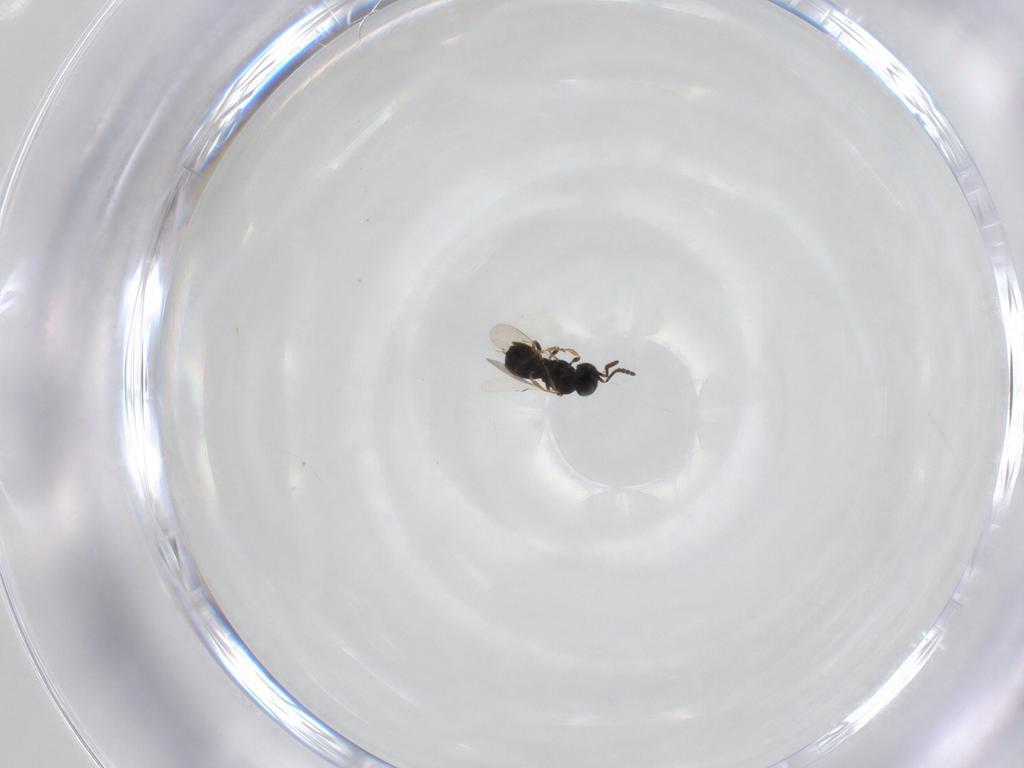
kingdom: Animalia
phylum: Arthropoda
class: Insecta
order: Hymenoptera
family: Scelionidae
